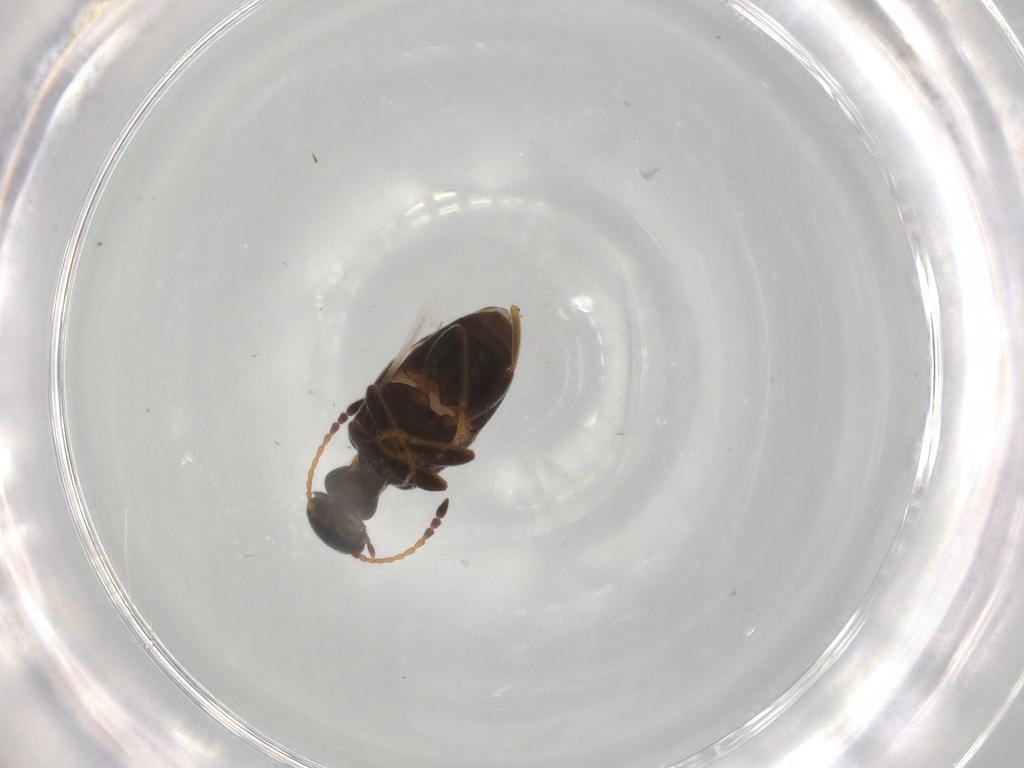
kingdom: Animalia
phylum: Arthropoda
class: Insecta
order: Coleoptera
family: Anthicidae
